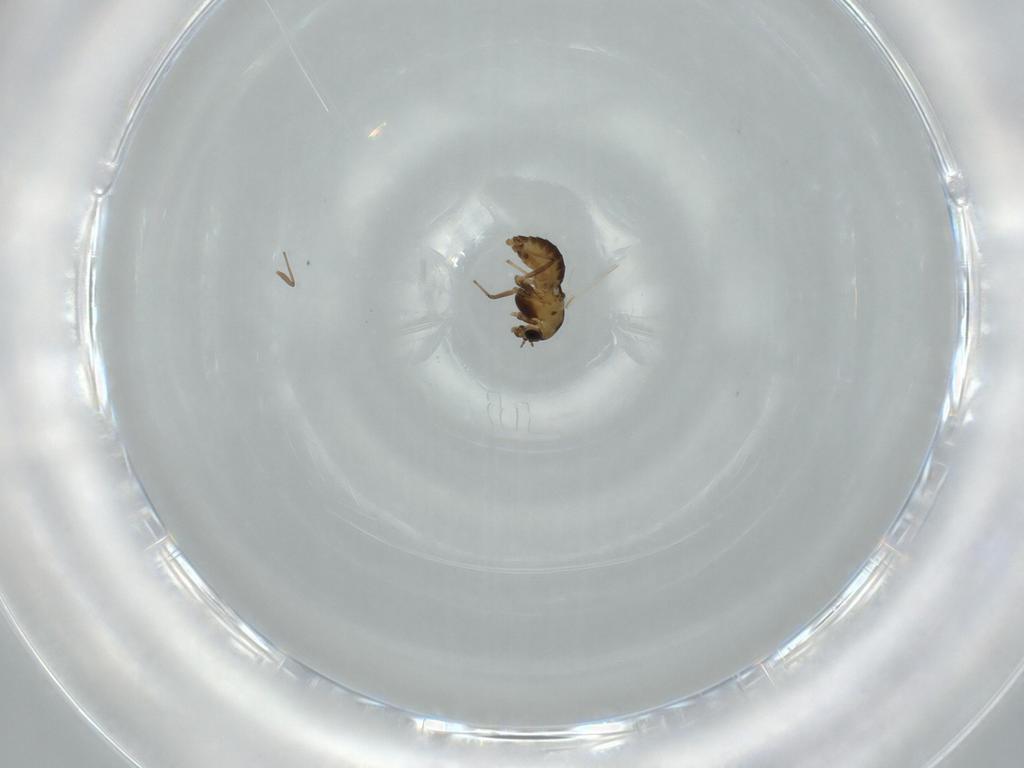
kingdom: Animalia
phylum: Arthropoda
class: Insecta
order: Diptera
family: Chironomidae
